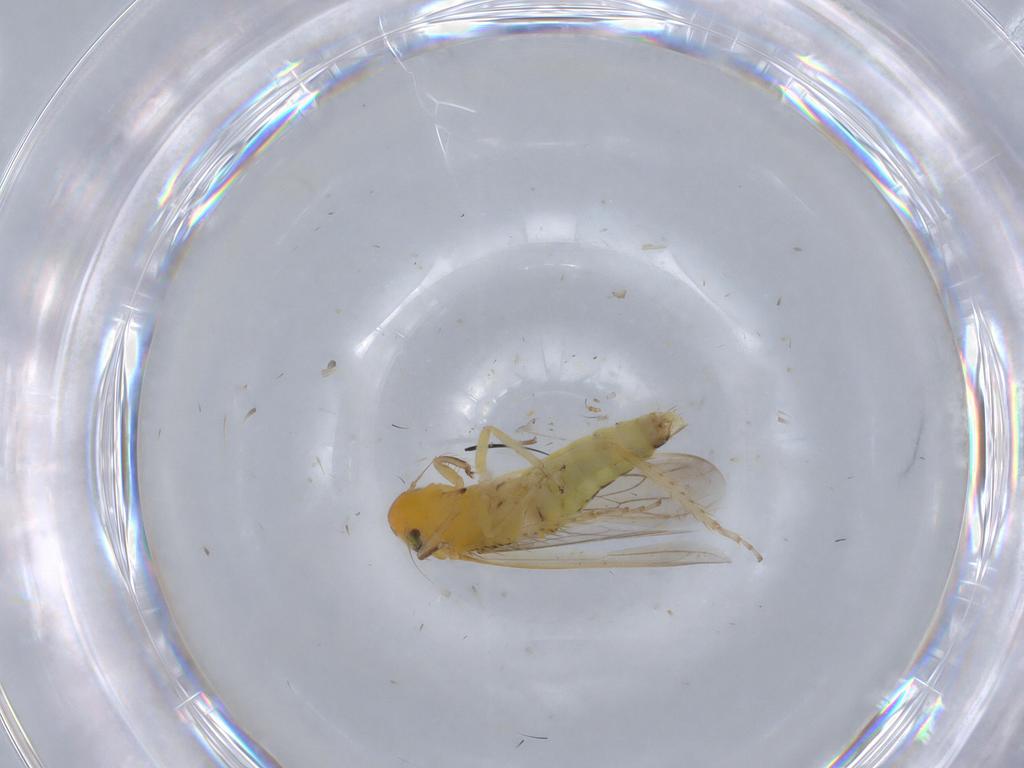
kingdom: Animalia
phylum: Arthropoda
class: Insecta
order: Hemiptera
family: Cicadellidae
